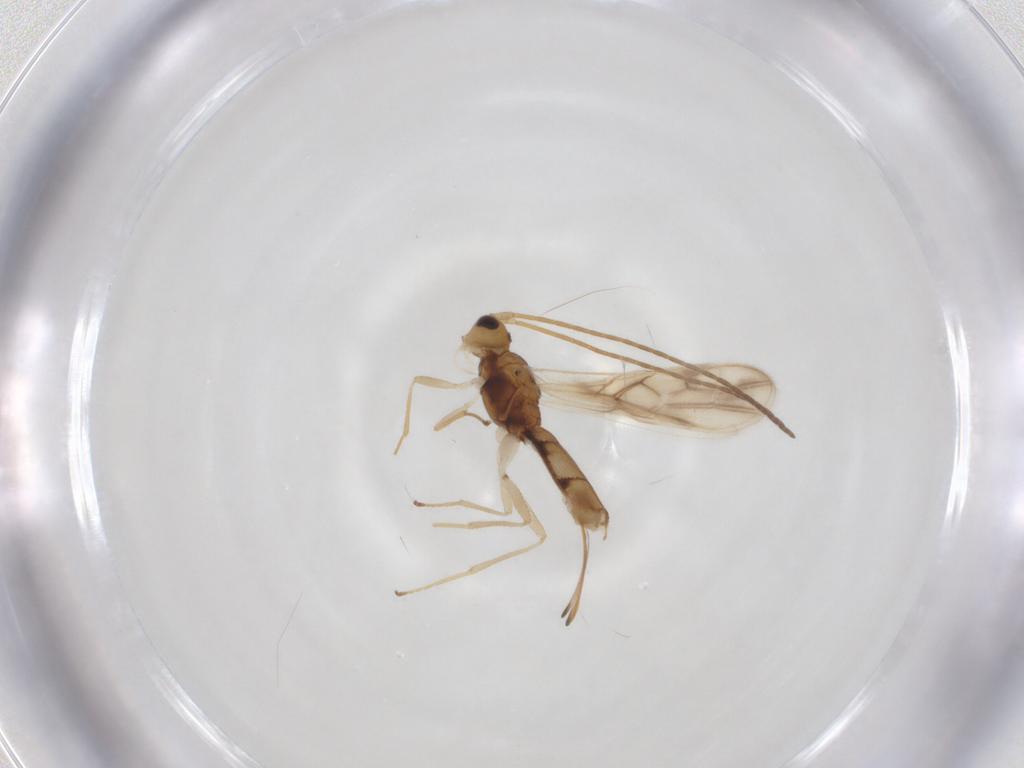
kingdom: Animalia
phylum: Arthropoda
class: Insecta
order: Hymenoptera
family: Braconidae
